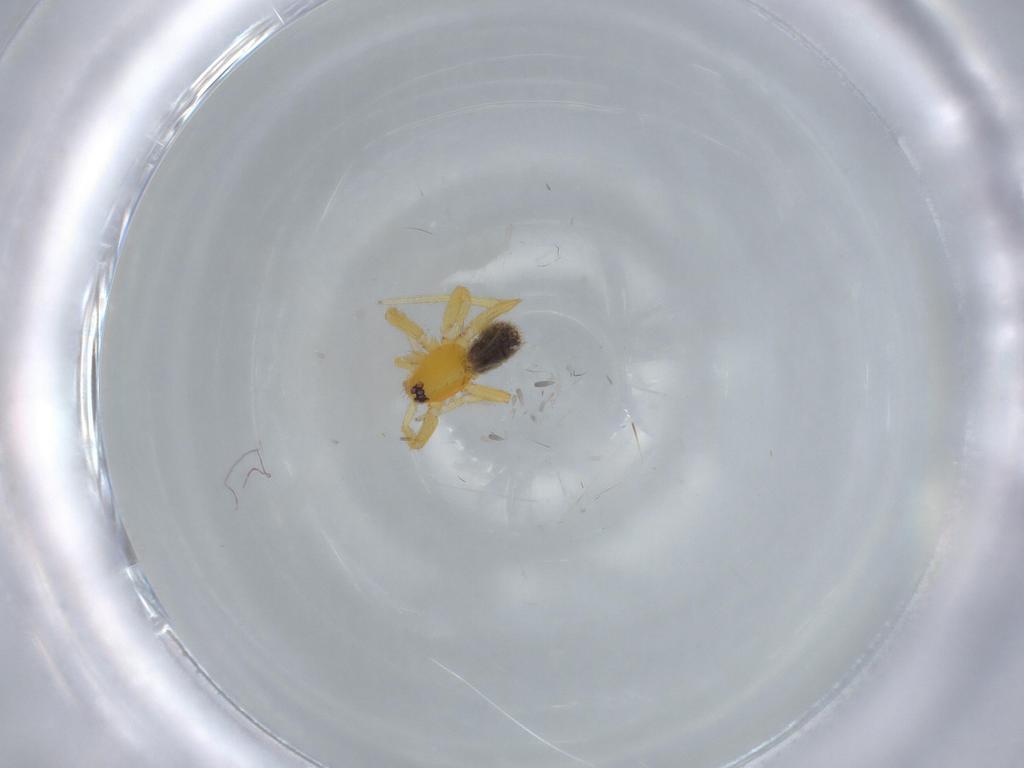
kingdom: Animalia
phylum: Arthropoda
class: Arachnida
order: Araneae
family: Oonopidae
